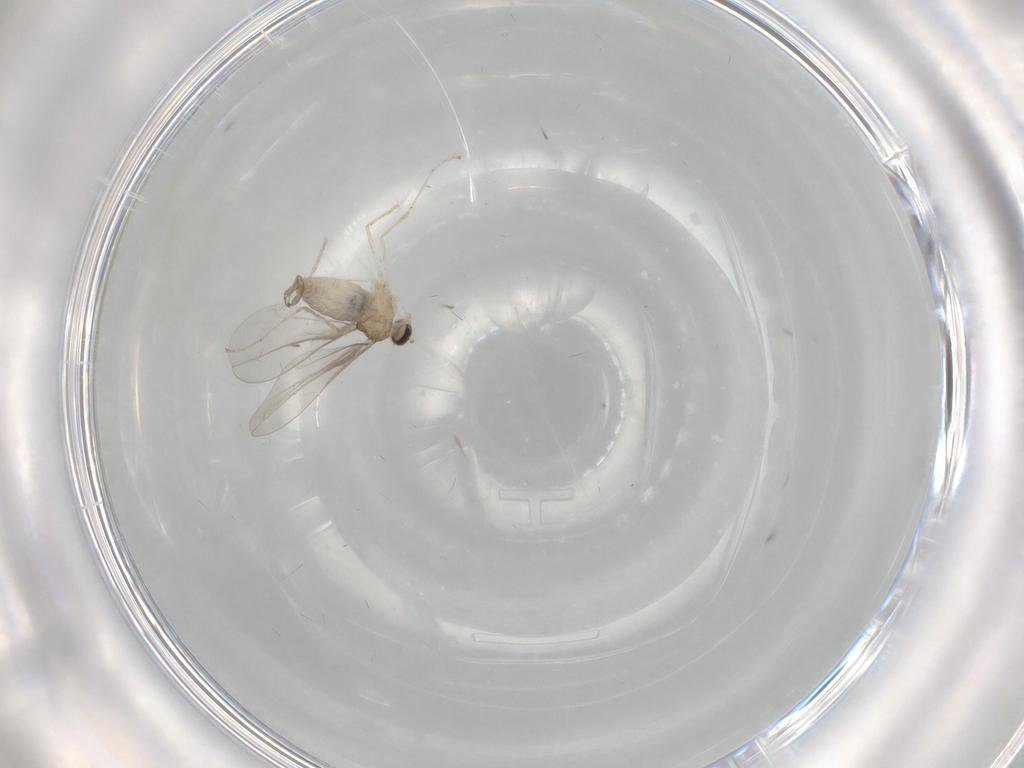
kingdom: Animalia
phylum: Arthropoda
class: Insecta
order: Diptera
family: Cecidomyiidae
